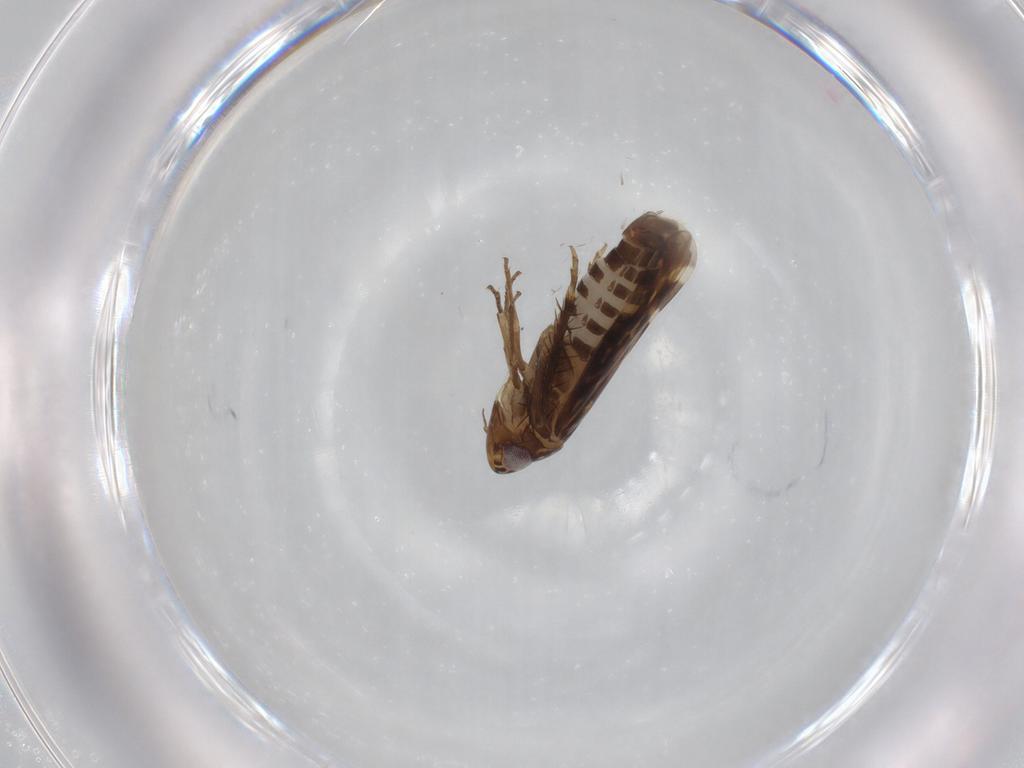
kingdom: Animalia
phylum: Arthropoda
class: Insecta
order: Hemiptera
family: Cicadellidae
